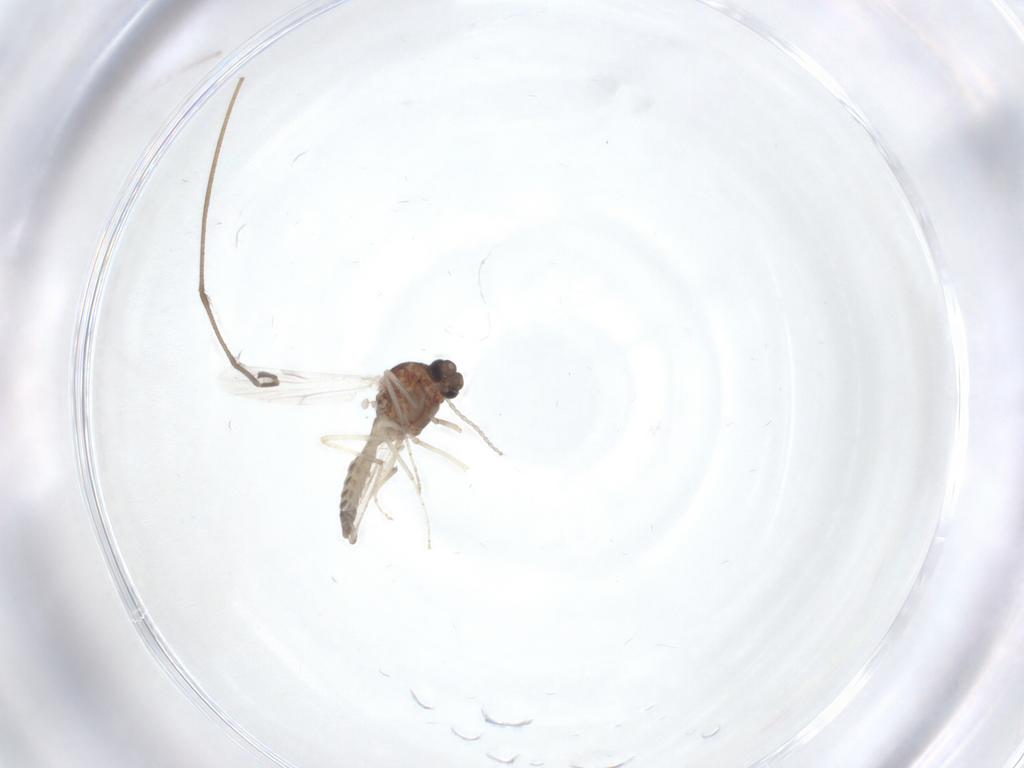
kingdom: Animalia
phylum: Arthropoda
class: Insecta
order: Diptera
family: Ceratopogonidae
